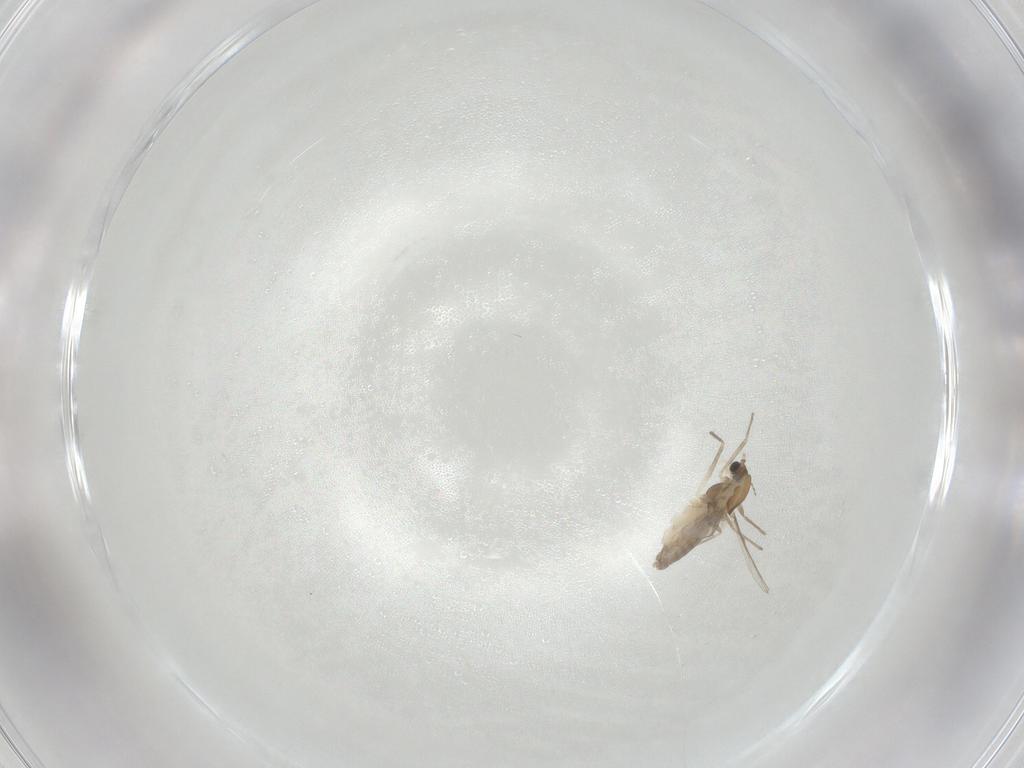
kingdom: Animalia
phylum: Arthropoda
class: Insecta
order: Diptera
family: Chironomidae
